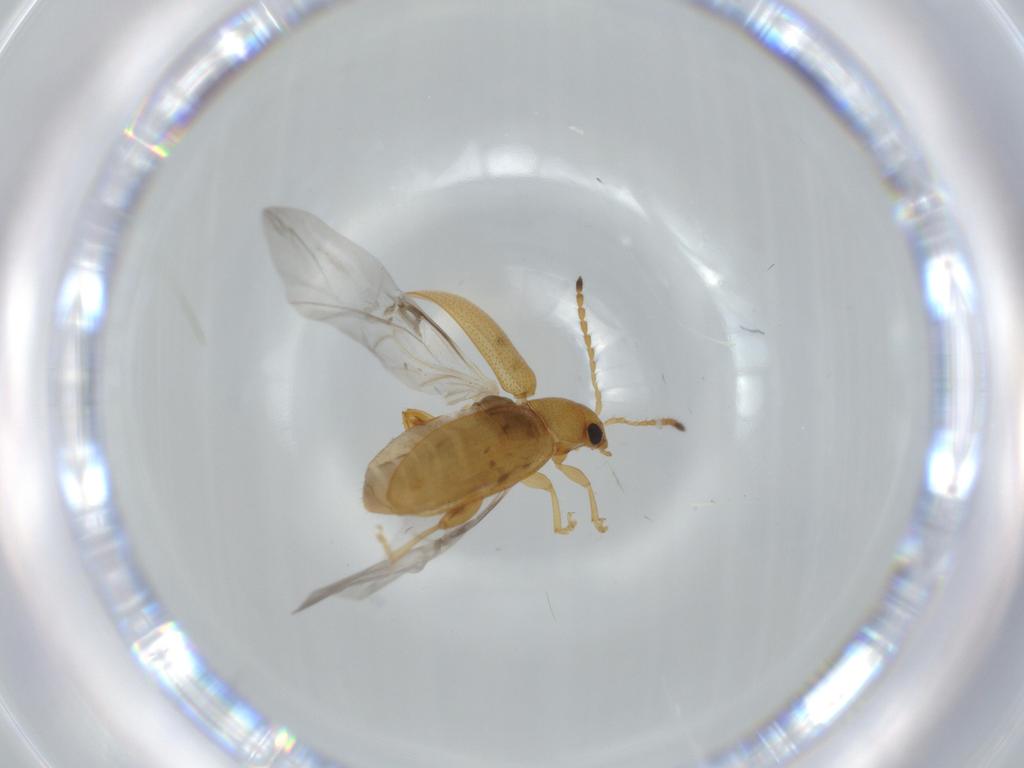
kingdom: Animalia
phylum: Arthropoda
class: Insecta
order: Coleoptera
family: Chrysomelidae
